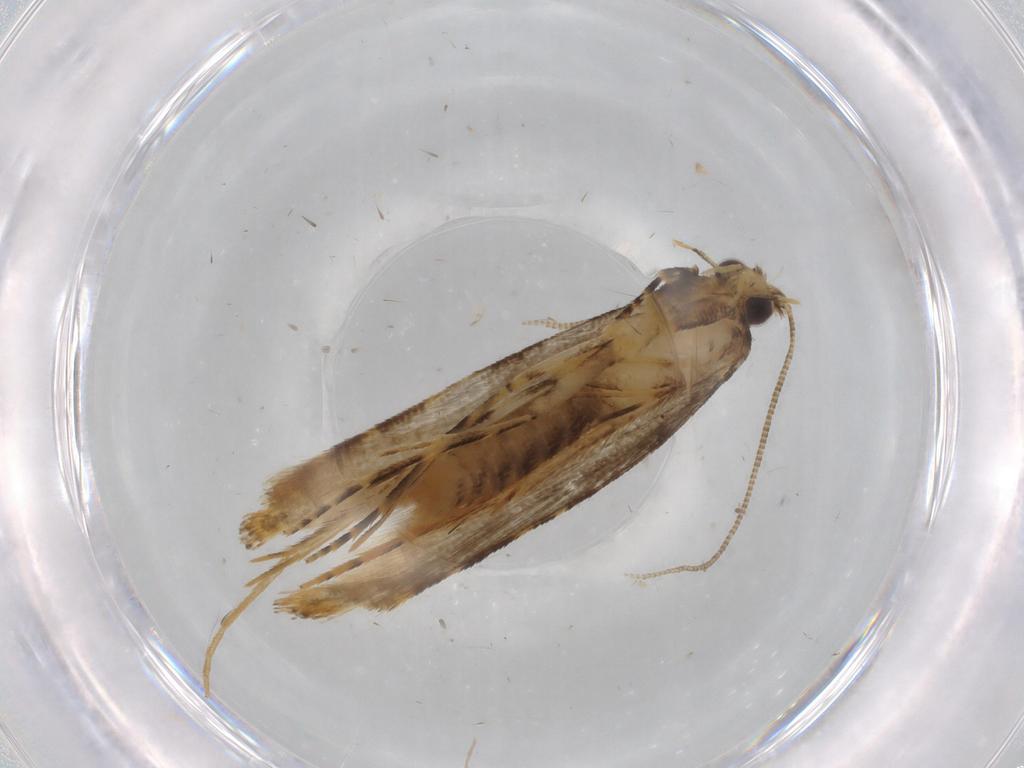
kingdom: Animalia
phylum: Arthropoda
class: Insecta
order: Lepidoptera
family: Tineidae
